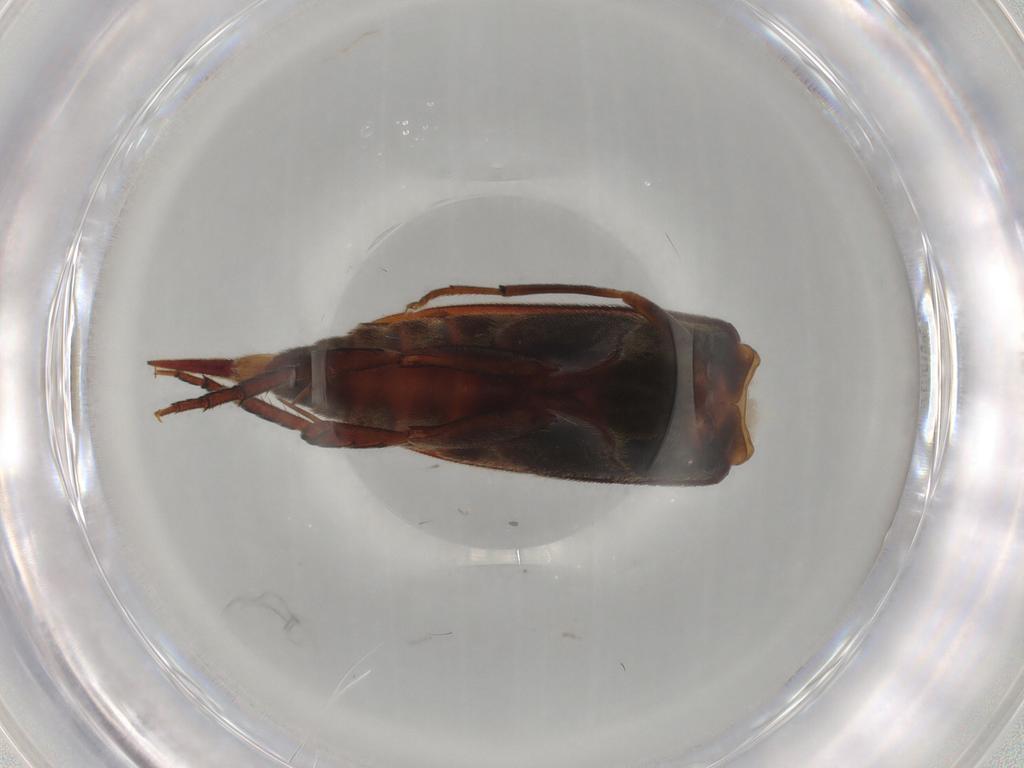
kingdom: Animalia
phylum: Arthropoda
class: Insecta
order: Coleoptera
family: Mordellidae
